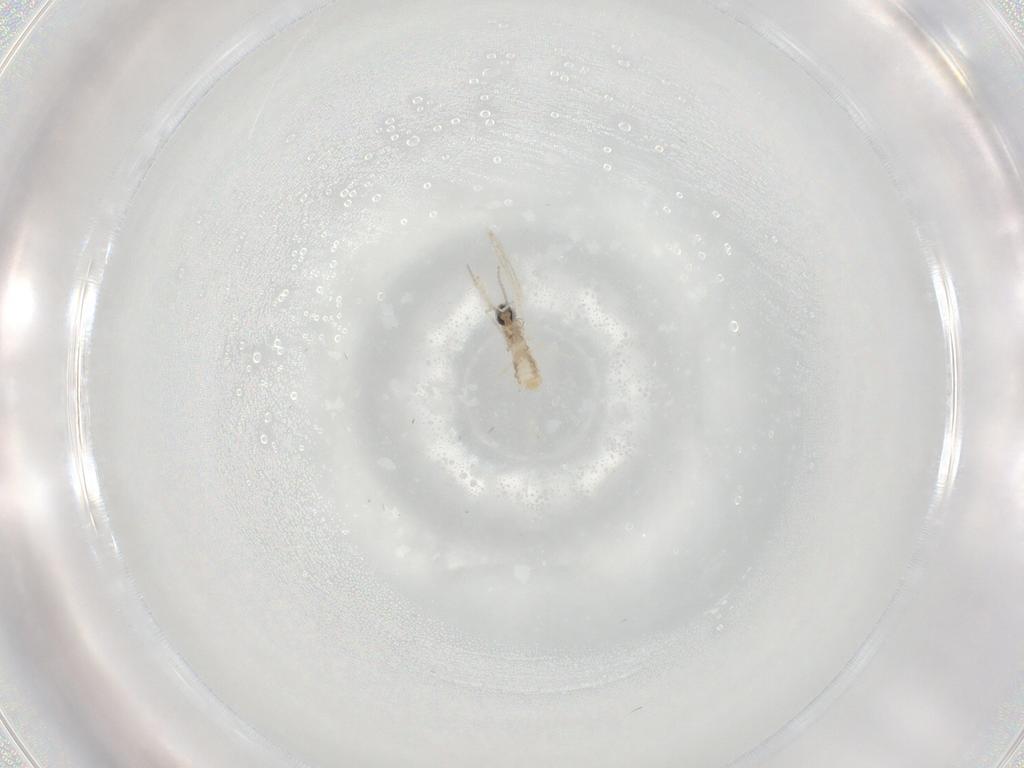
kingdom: Animalia
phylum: Arthropoda
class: Insecta
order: Diptera
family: Cecidomyiidae
